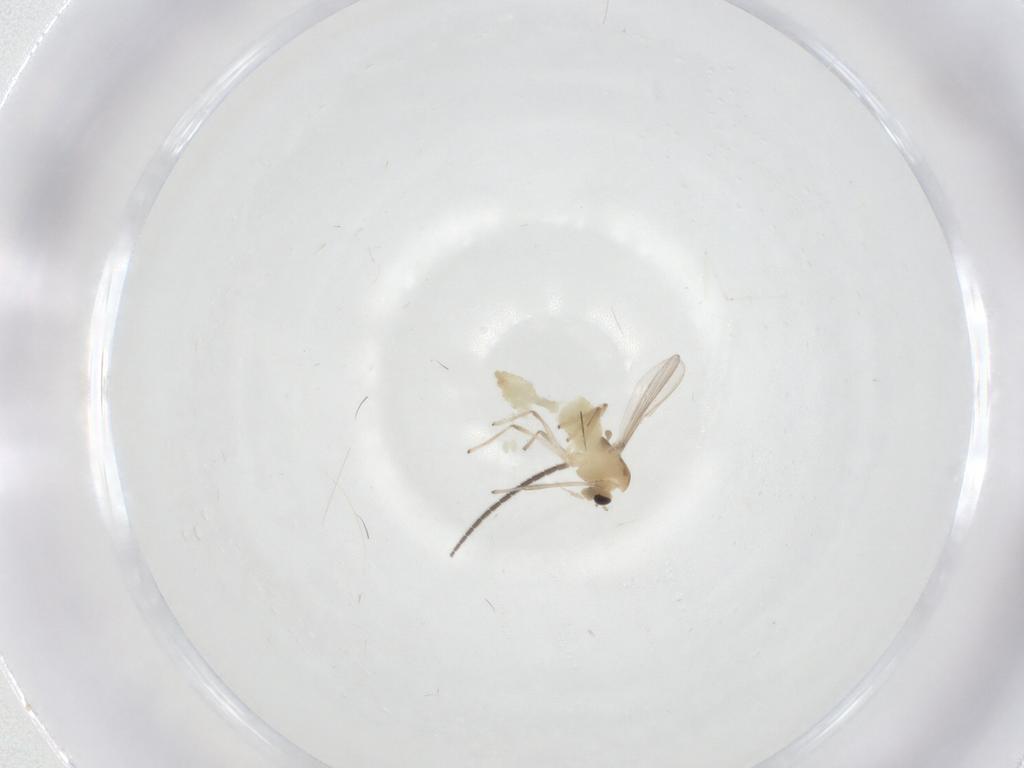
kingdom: Animalia
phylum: Arthropoda
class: Insecta
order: Diptera
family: Chironomidae
